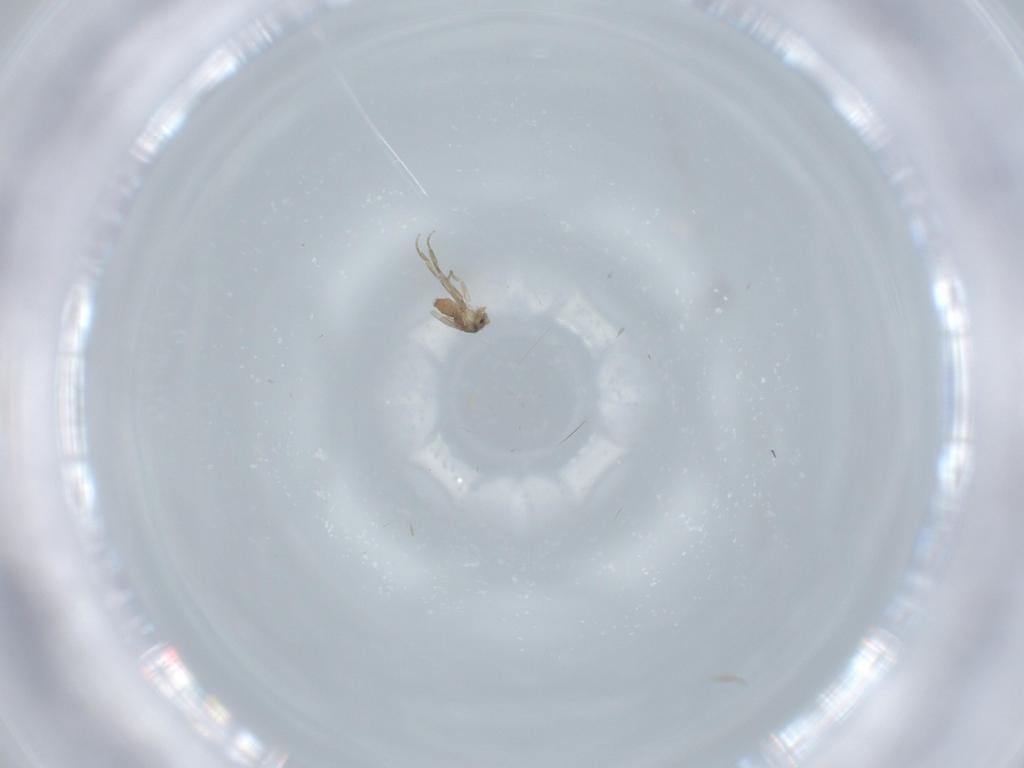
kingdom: Animalia
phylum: Arthropoda
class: Insecta
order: Diptera
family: Phoridae
